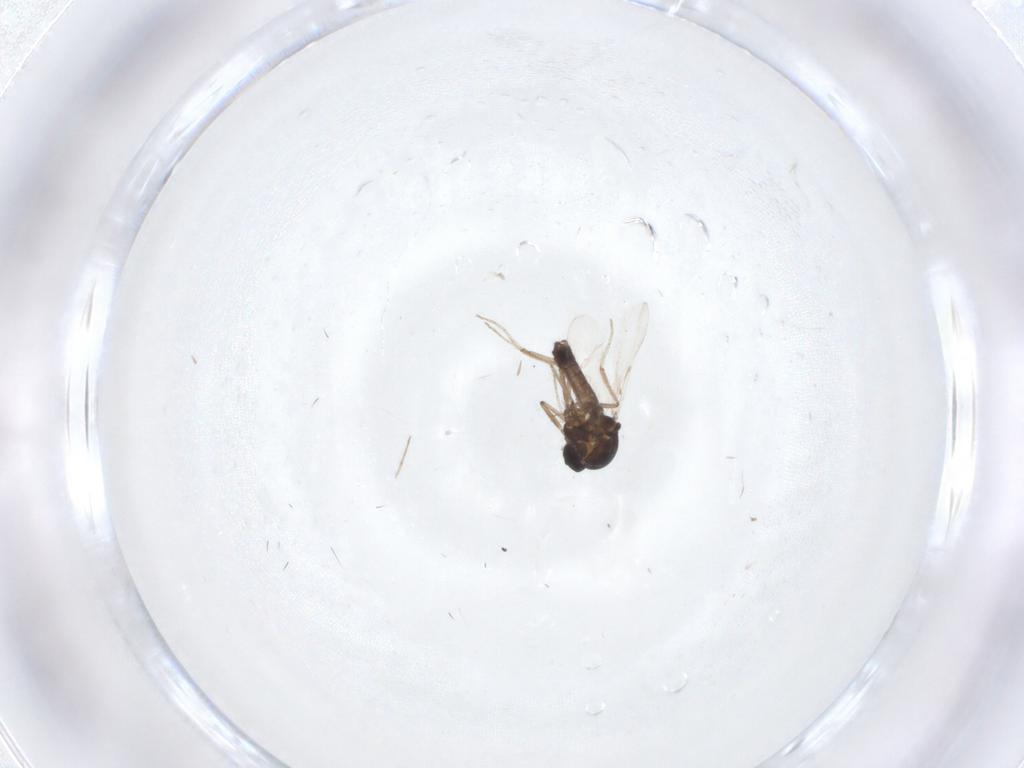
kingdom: Animalia
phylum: Arthropoda
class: Insecta
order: Diptera
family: Ceratopogonidae
